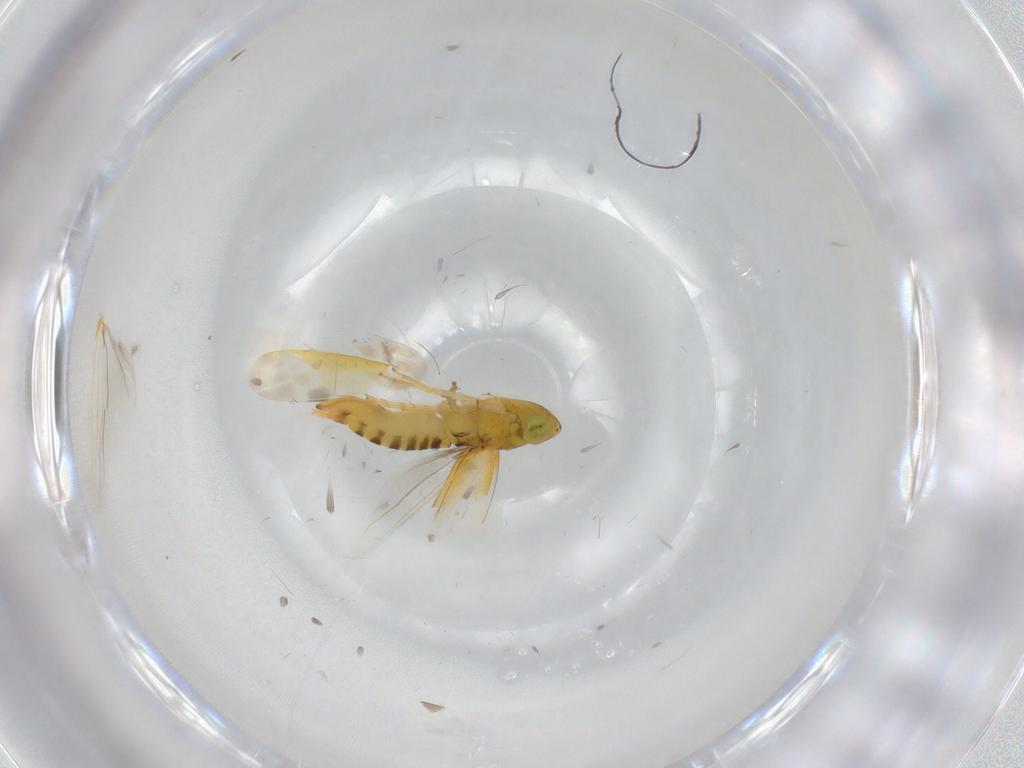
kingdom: Animalia
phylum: Arthropoda
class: Insecta
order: Hemiptera
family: Cicadellidae
